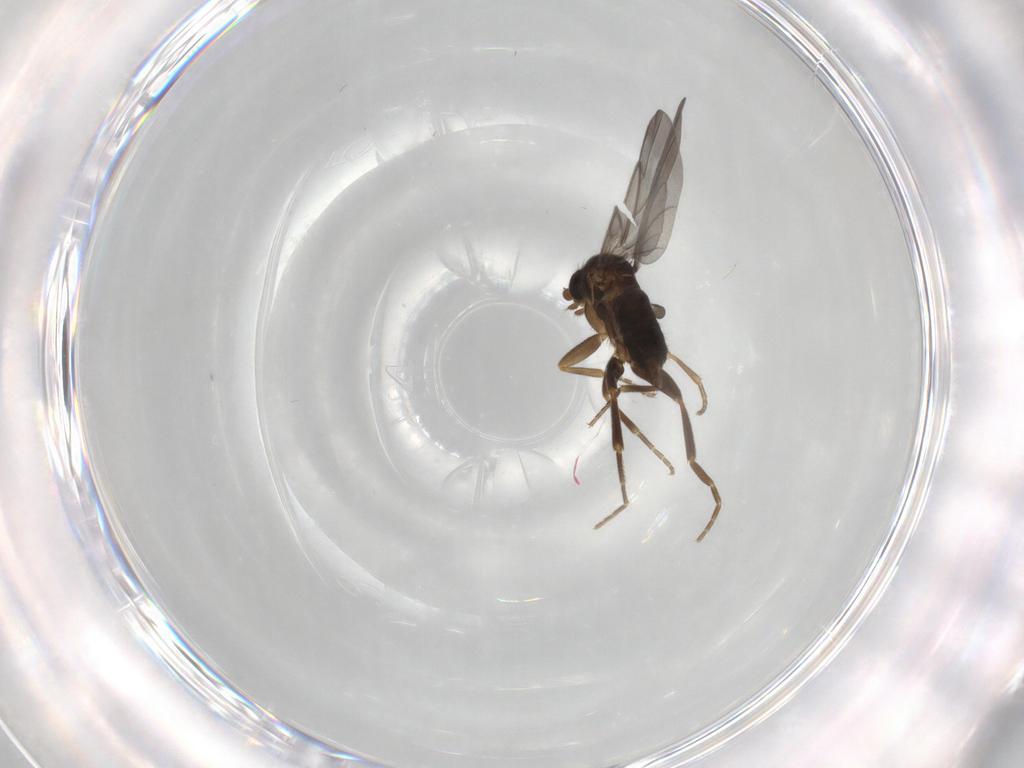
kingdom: Animalia
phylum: Arthropoda
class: Insecta
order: Diptera
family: Phoridae
